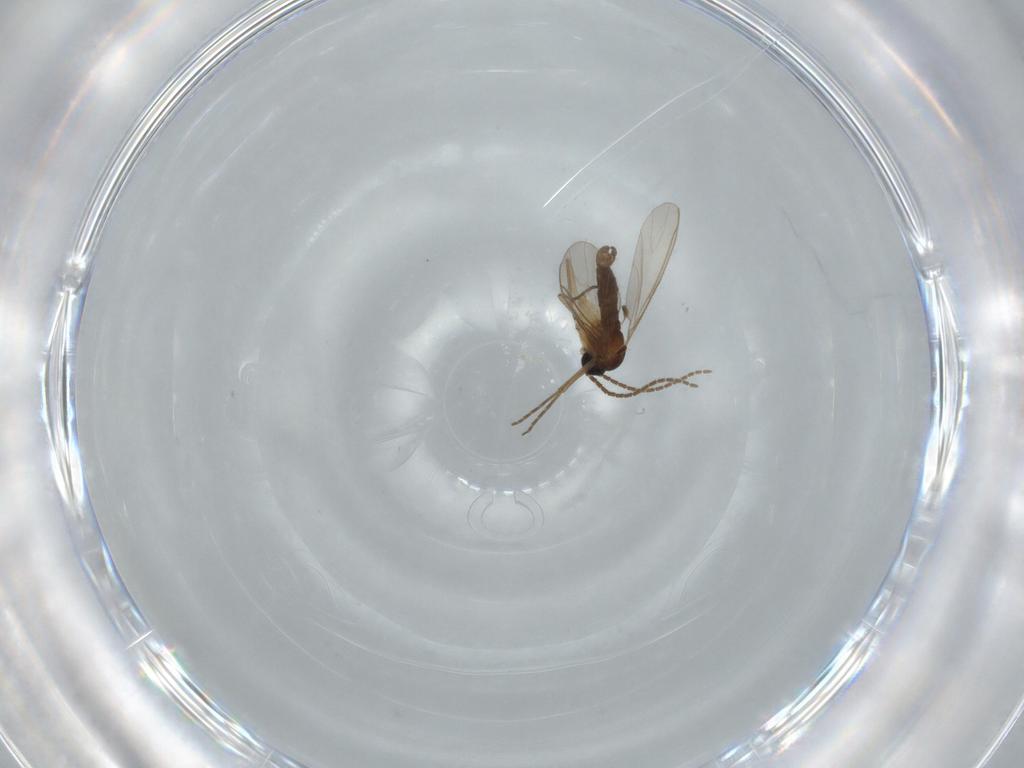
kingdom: Animalia
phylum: Arthropoda
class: Insecta
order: Diptera
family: Sciaridae
